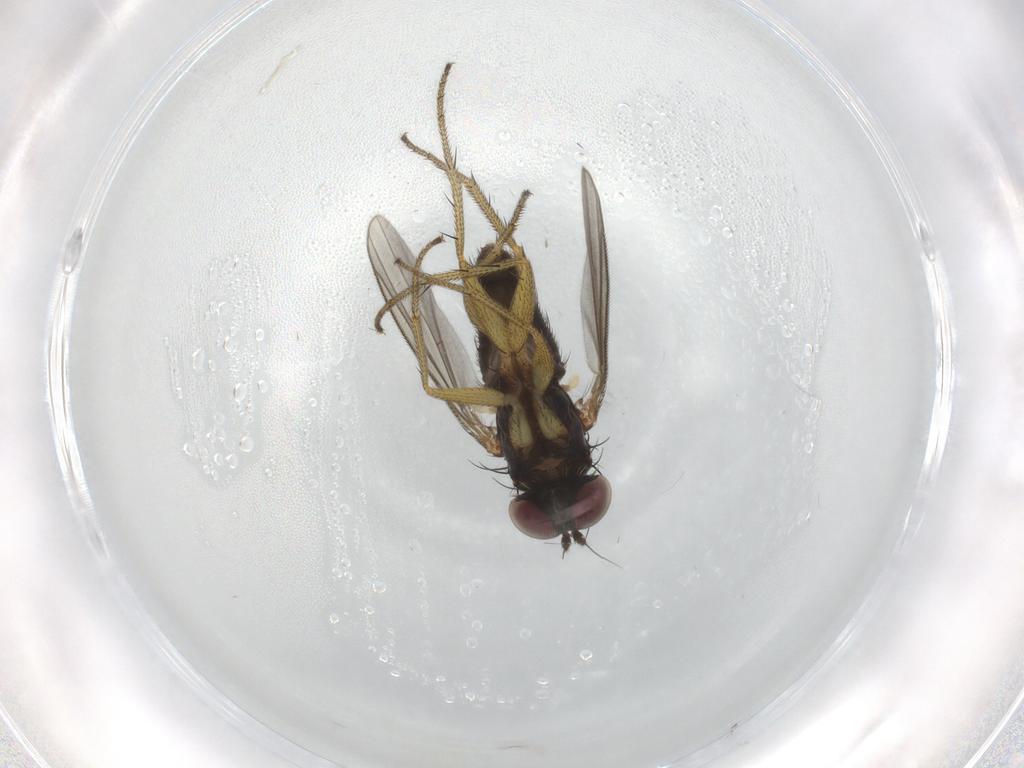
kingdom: Animalia
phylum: Arthropoda
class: Insecta
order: Diptera
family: Dolichopodidae
